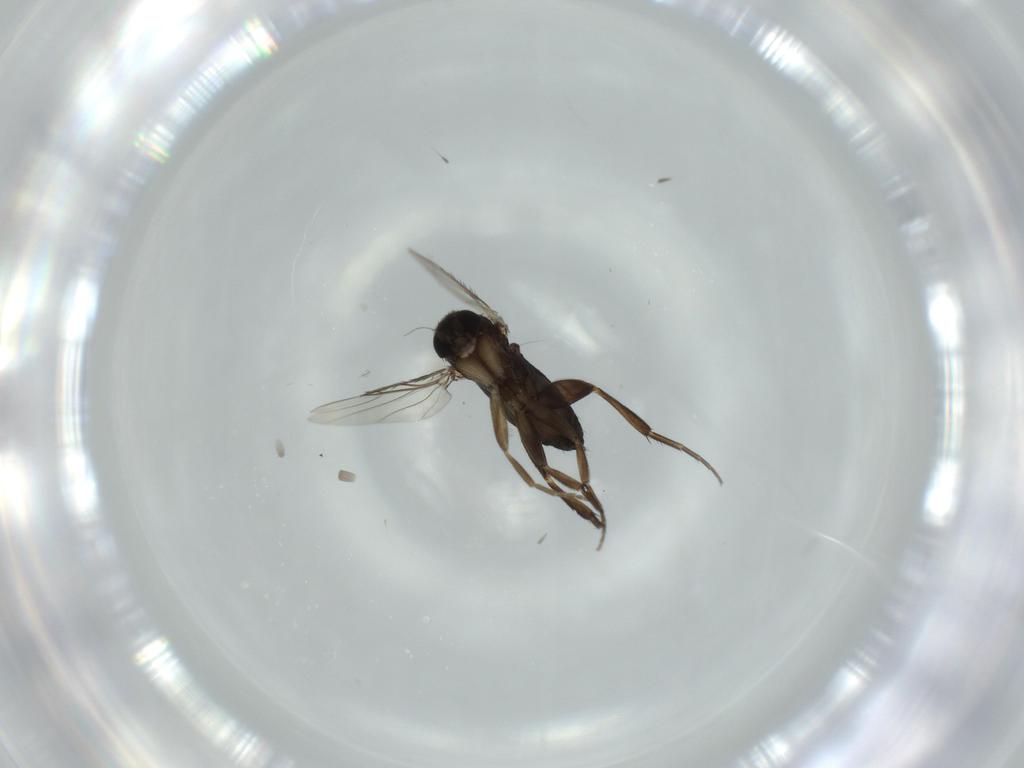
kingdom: Animalia
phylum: Arthropoda
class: Insecta
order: Diptera
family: Phoridae
